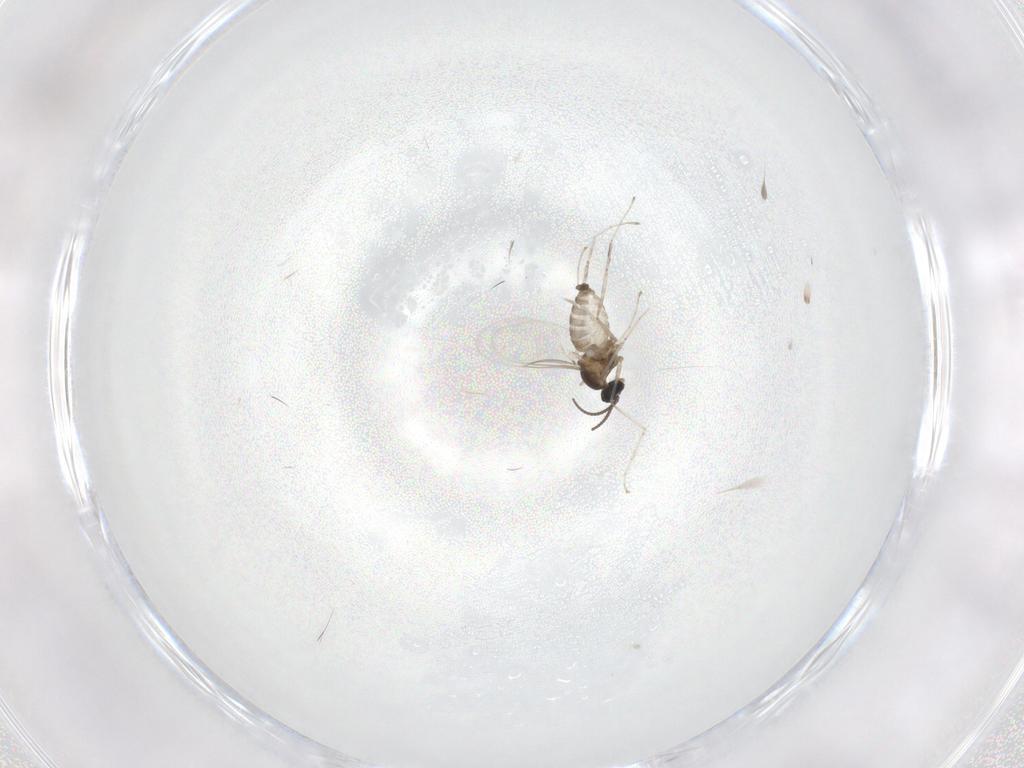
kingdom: Animalia
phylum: Arthropoda
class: Insecta
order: Diptera
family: Cecidomyiidae
